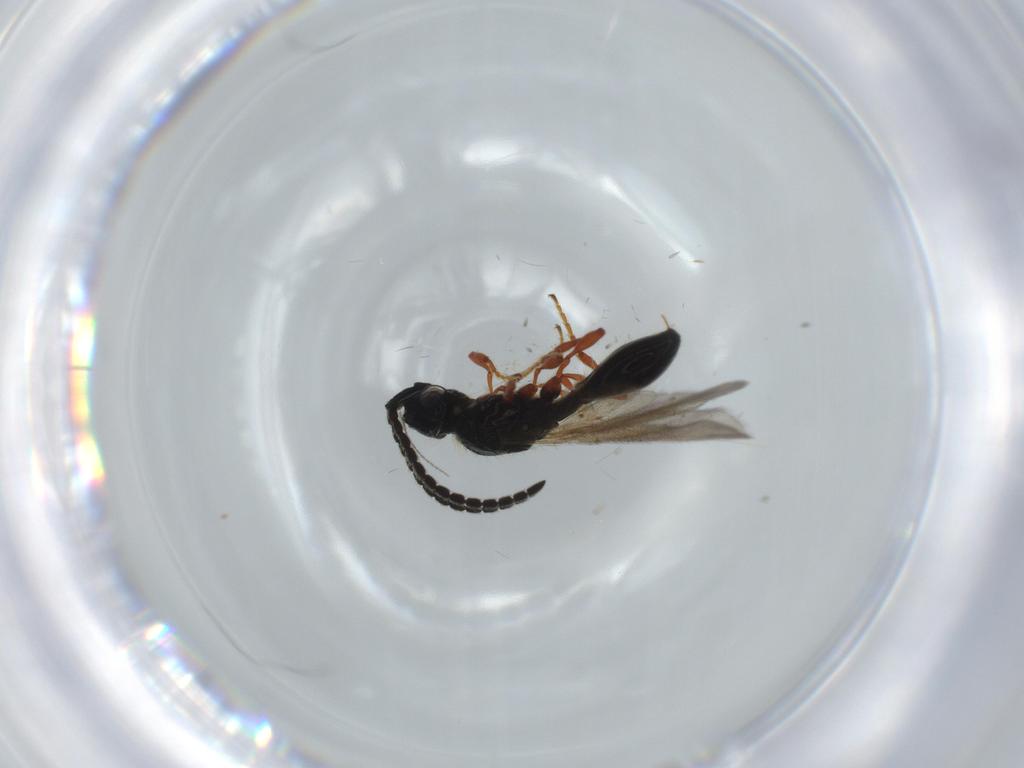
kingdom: Animalia
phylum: Arthropoda
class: Insecta
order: Hymenoptera
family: Diapriidae
